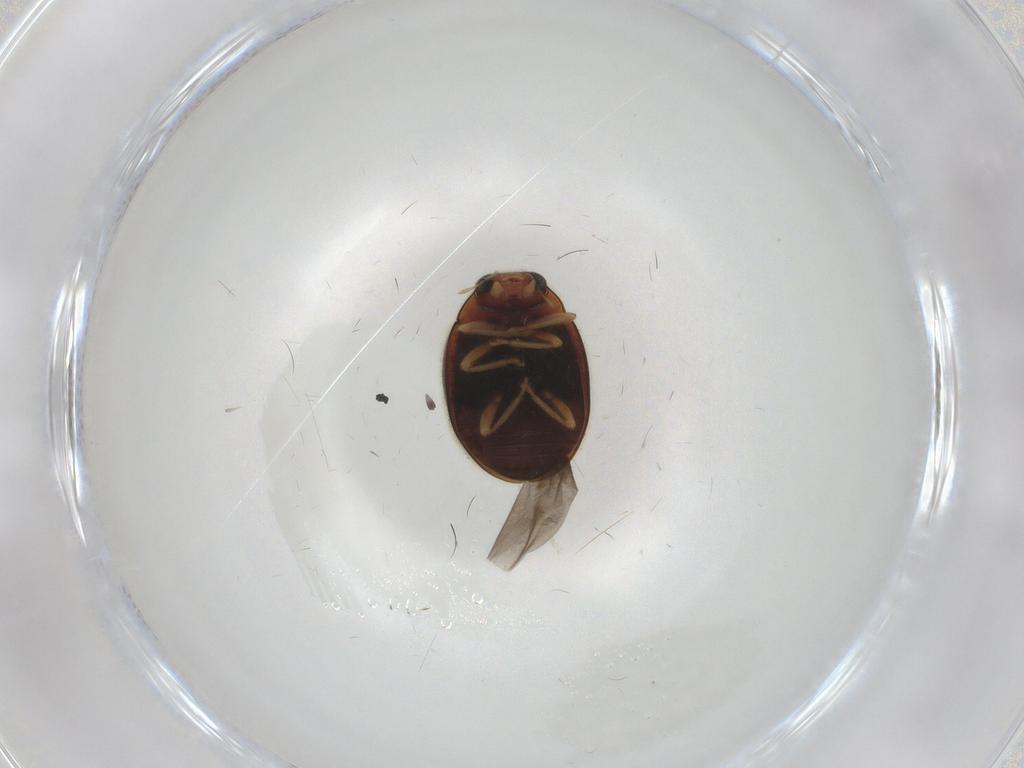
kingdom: Animalia
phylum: Arthropoda
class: Insecta
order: Coleoptera
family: Coccinellidae
